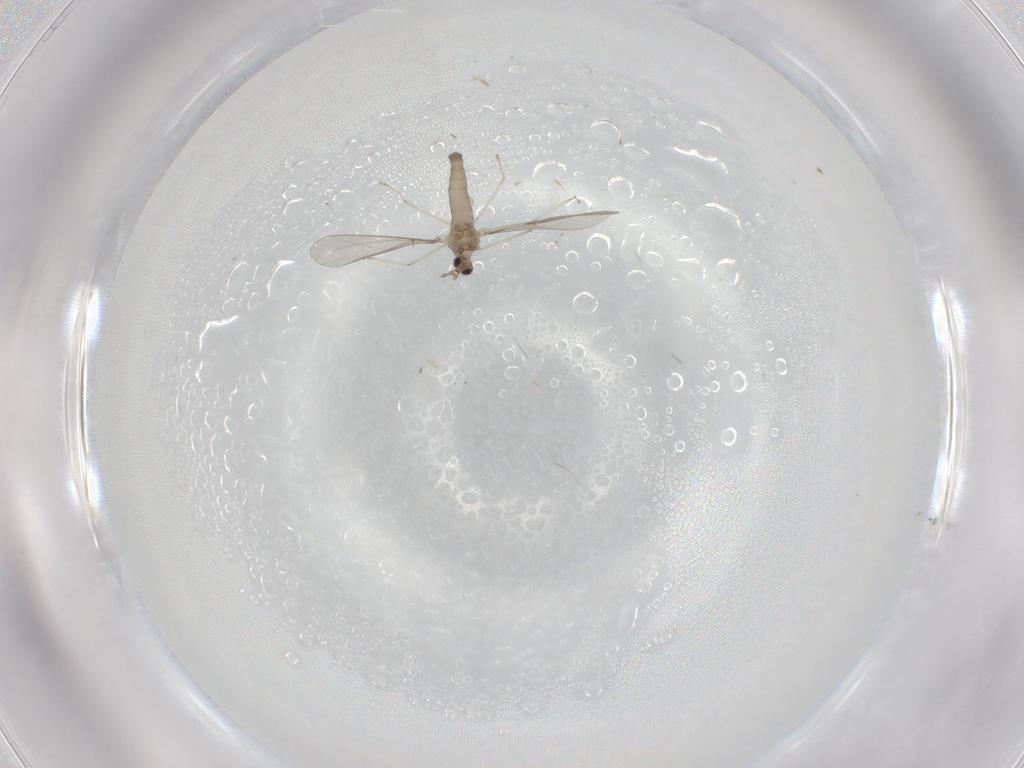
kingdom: Animalia
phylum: Arthropoda
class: Insecta
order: Diptera
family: Cecidomyiidae
